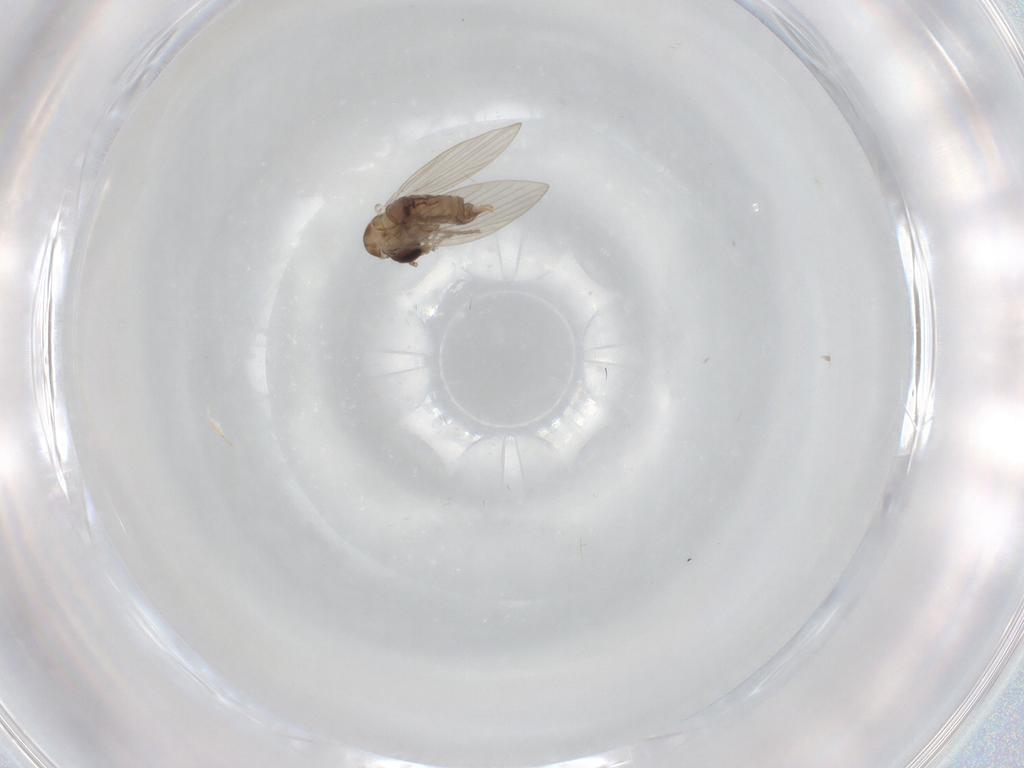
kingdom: Animalia
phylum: Arthropoda
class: Insecta
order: Diptera
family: Psychodidae
